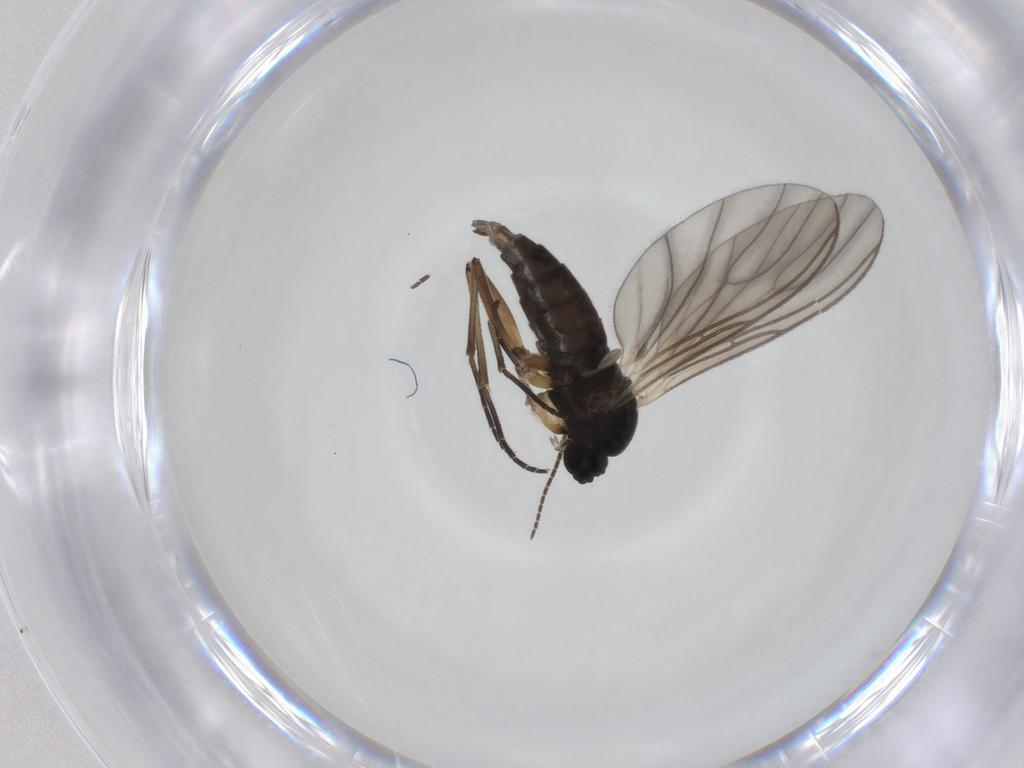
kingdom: Animalia
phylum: Arthropoda
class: Insecta
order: Diptera
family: Sciaridae
